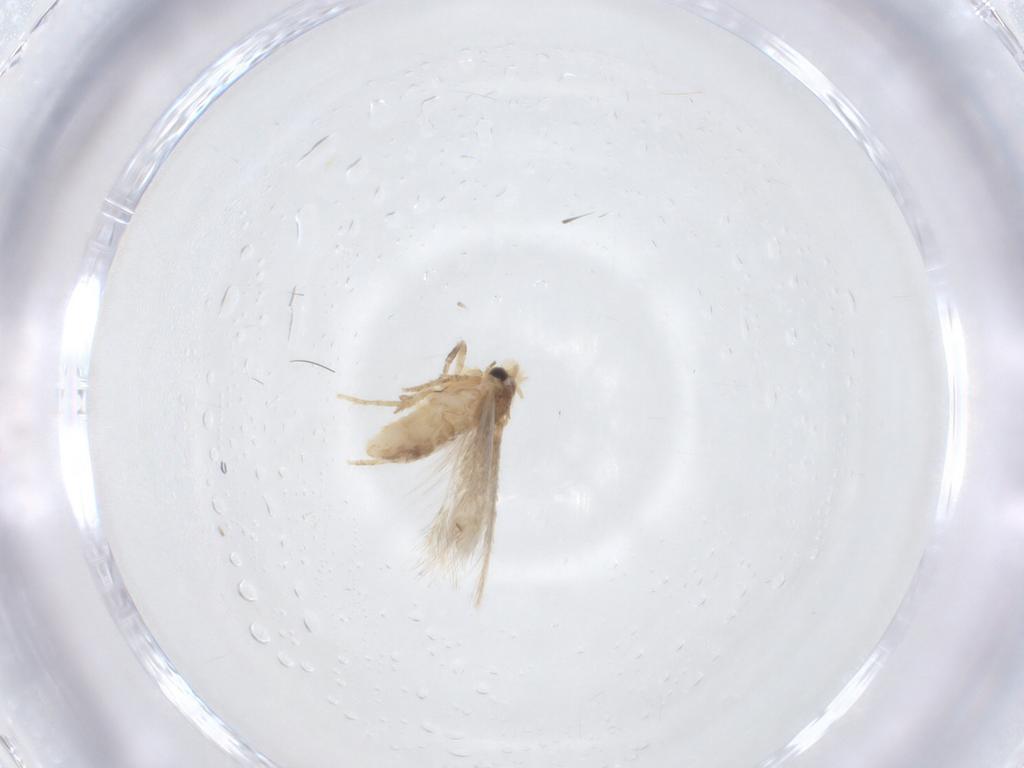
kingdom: Animalia
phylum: Arthropoda
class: Insecta
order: Lepidoptera
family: Nepticulidae
